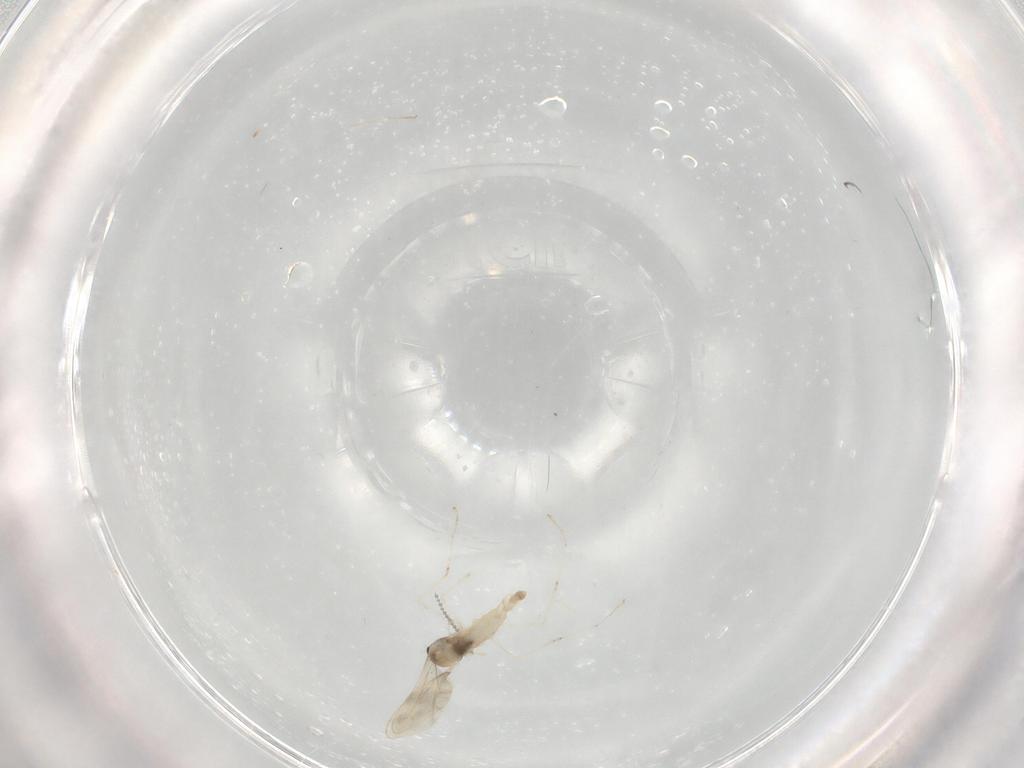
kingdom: Animalia
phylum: Arthropoda
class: Insecta
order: Diptera
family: Cecidomyiidae
